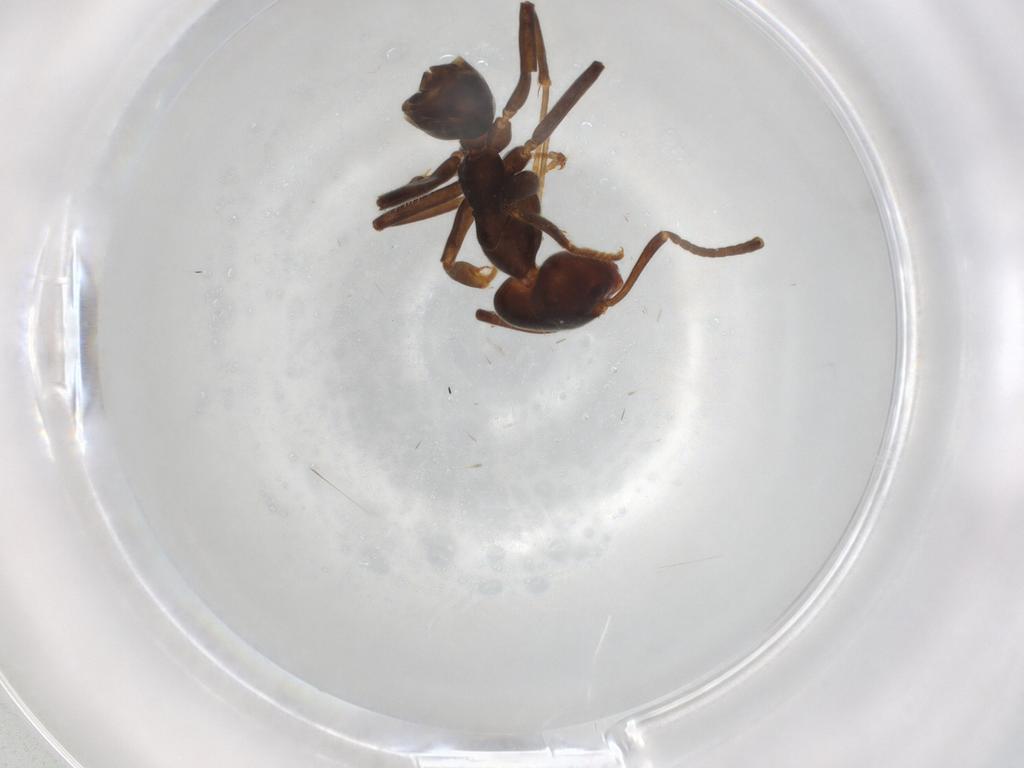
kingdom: Animalia
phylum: Arthropoda
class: Insecta
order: Hymenoptera
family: Formicidae
